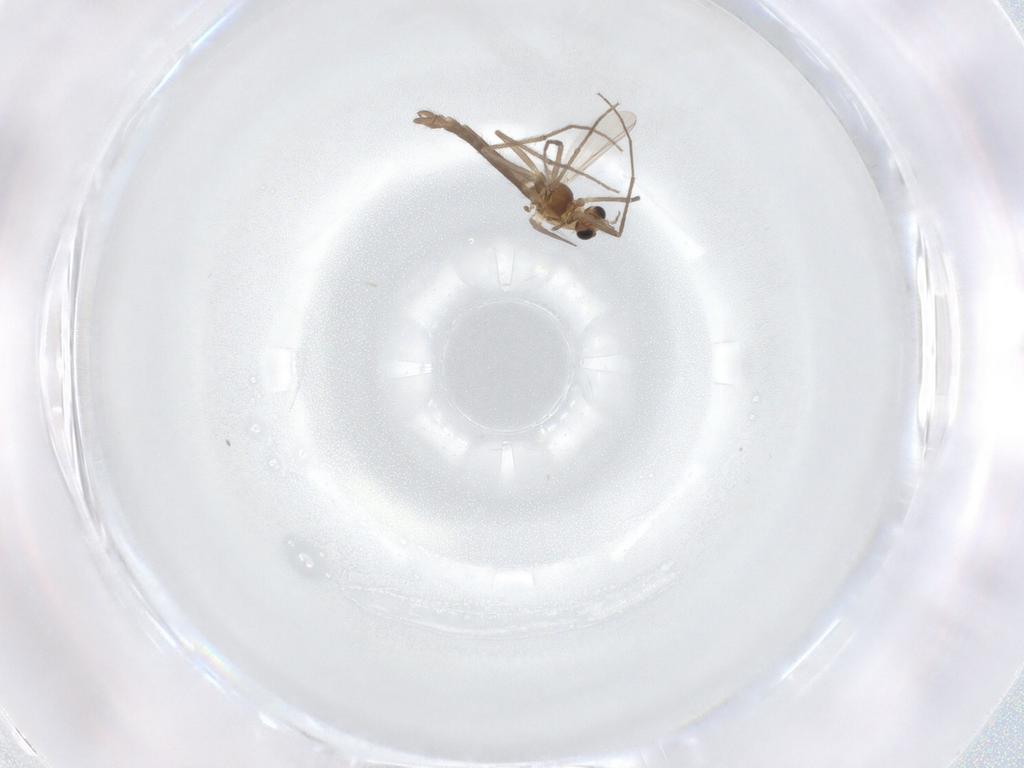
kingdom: Animalia
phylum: Arthropoda
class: Insecta
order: Diptera
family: Chironomidae
